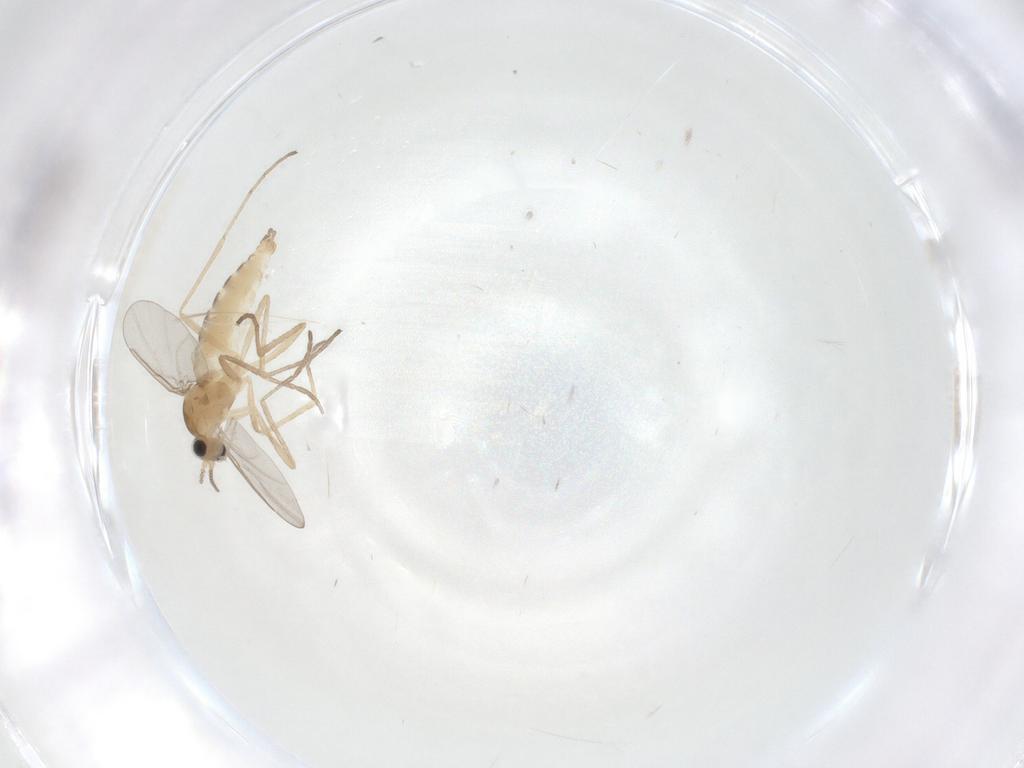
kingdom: Animalia
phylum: Arthropoda
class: Insecta
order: Diptera
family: Cecidomyiidae
